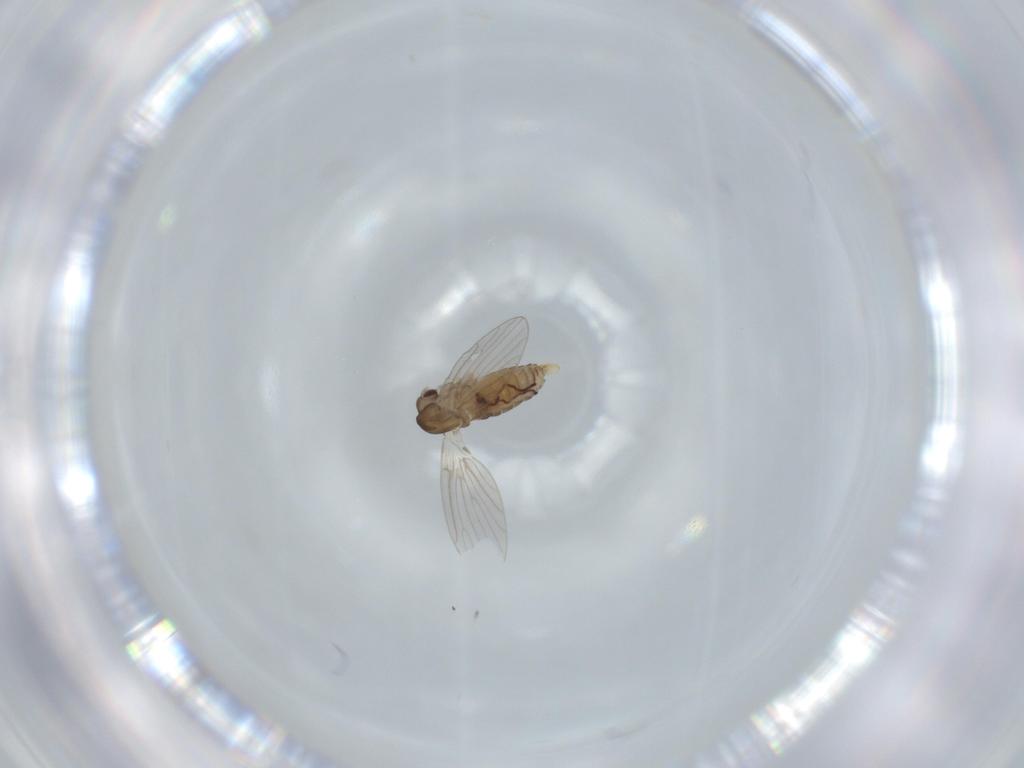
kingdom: Animalia
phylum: Arthropoda
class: Insecta
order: Diptera
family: Psychodidae
